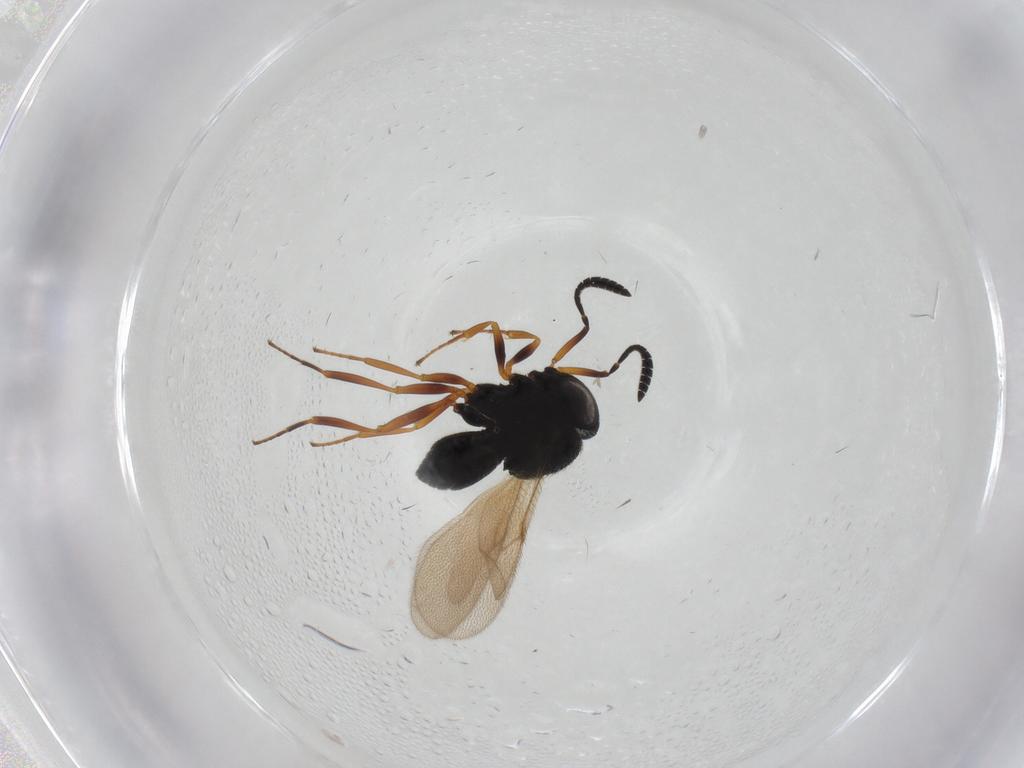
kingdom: Animalia
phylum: Arthropoda
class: Insecta
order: Hymenoptera
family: Scelionidae
